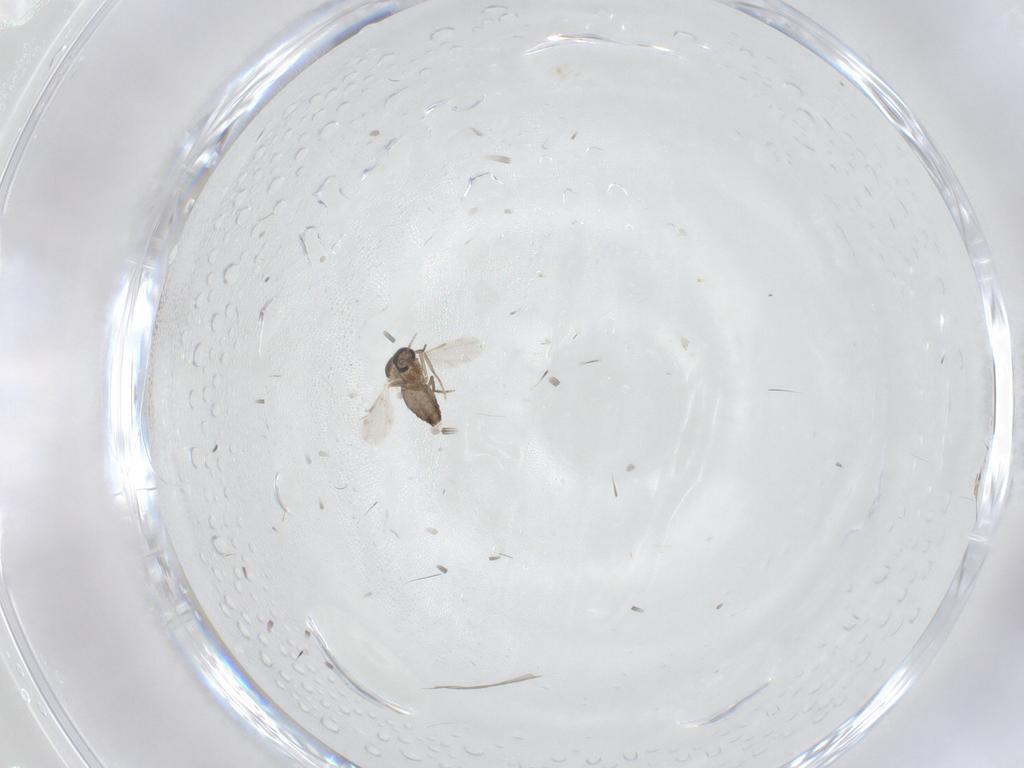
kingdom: Animalia
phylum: Arthropoda
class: Insecta
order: Diptera
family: Ceratopogonidae
